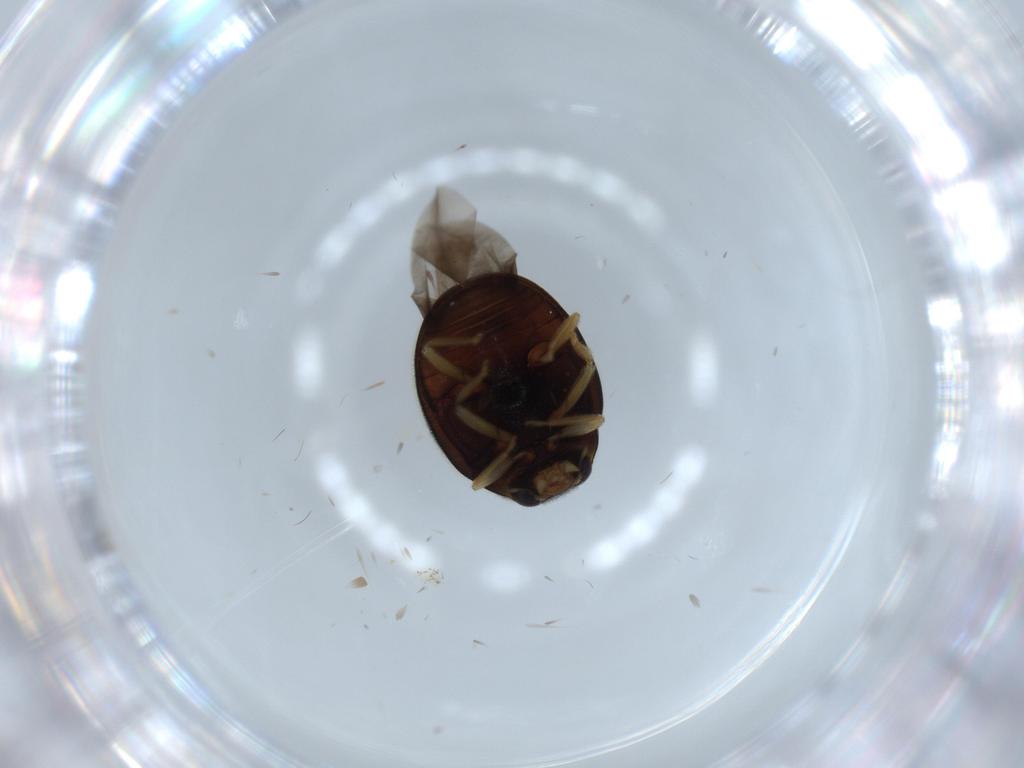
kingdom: Animalia
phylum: Arthropoda
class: Insecta
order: Coleoptera
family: Coccinellidae
